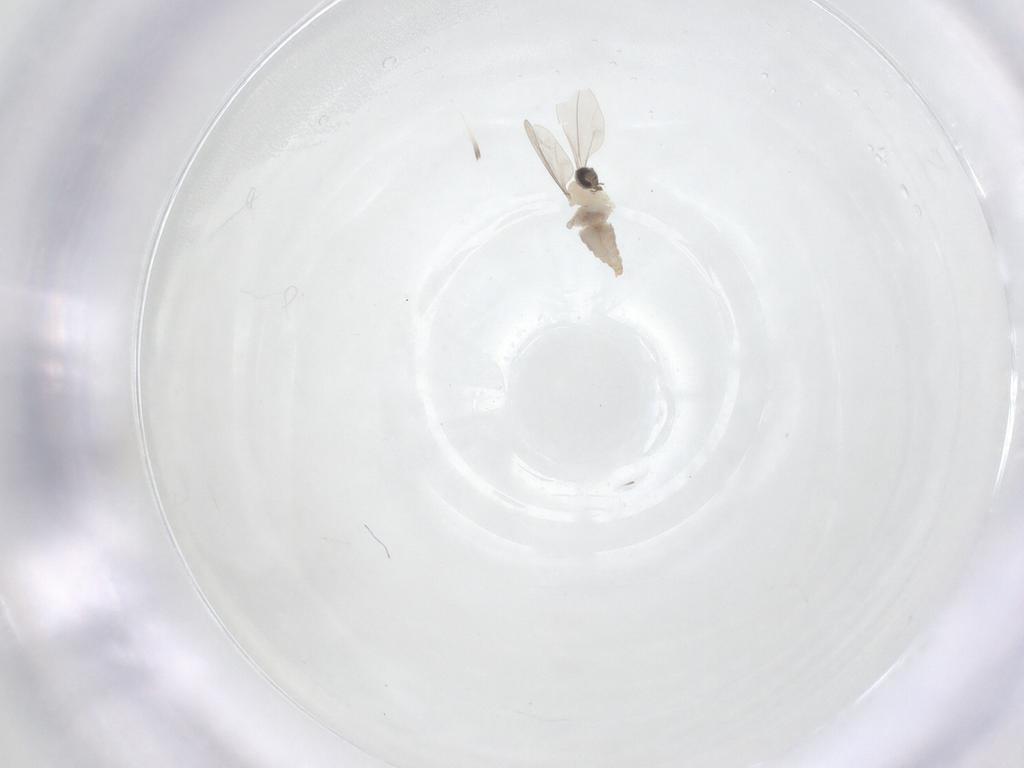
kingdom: Animalia
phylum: Arthropoda
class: Insecta
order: Diptera
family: Cecidomyiidae
